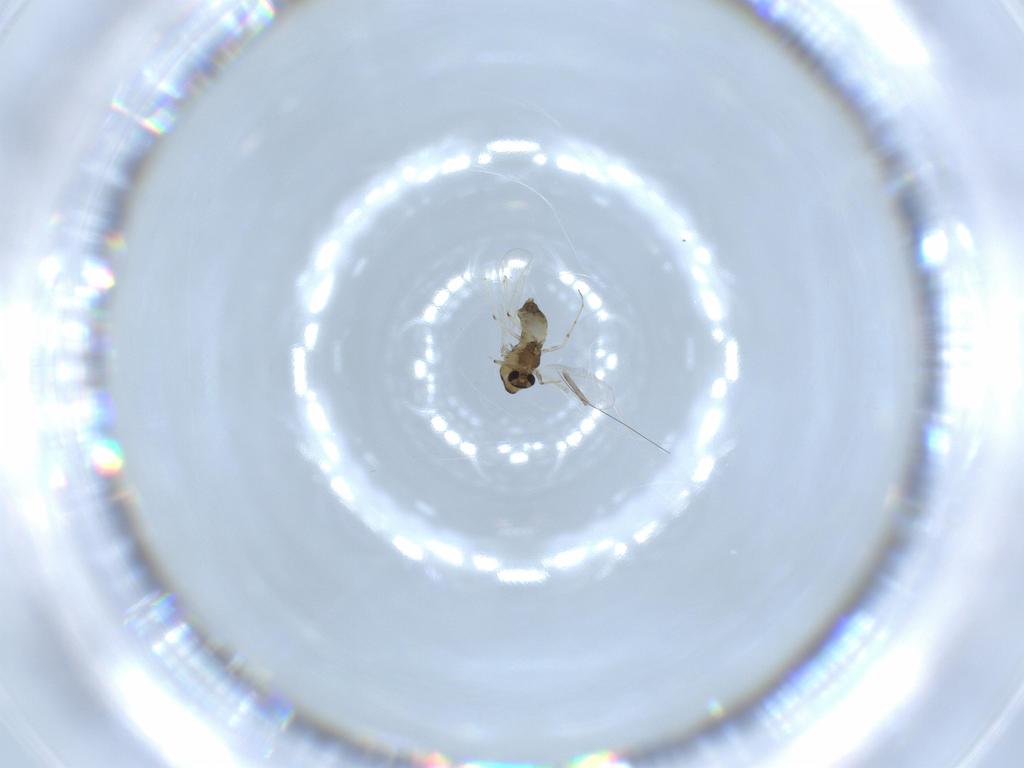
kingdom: Animalia
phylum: Arthropoda
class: Insecta
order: Diptera
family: Chironomidae
